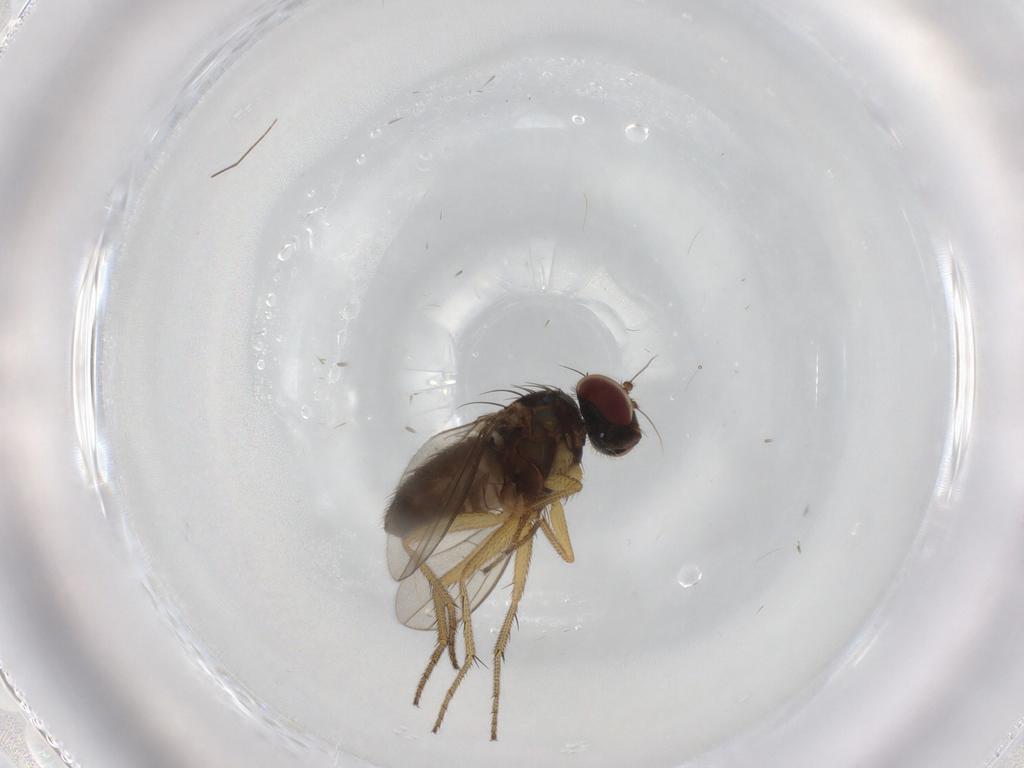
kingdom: Animalia
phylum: Arthropoda
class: Insecta
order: Diptera
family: Dolichopodidae
